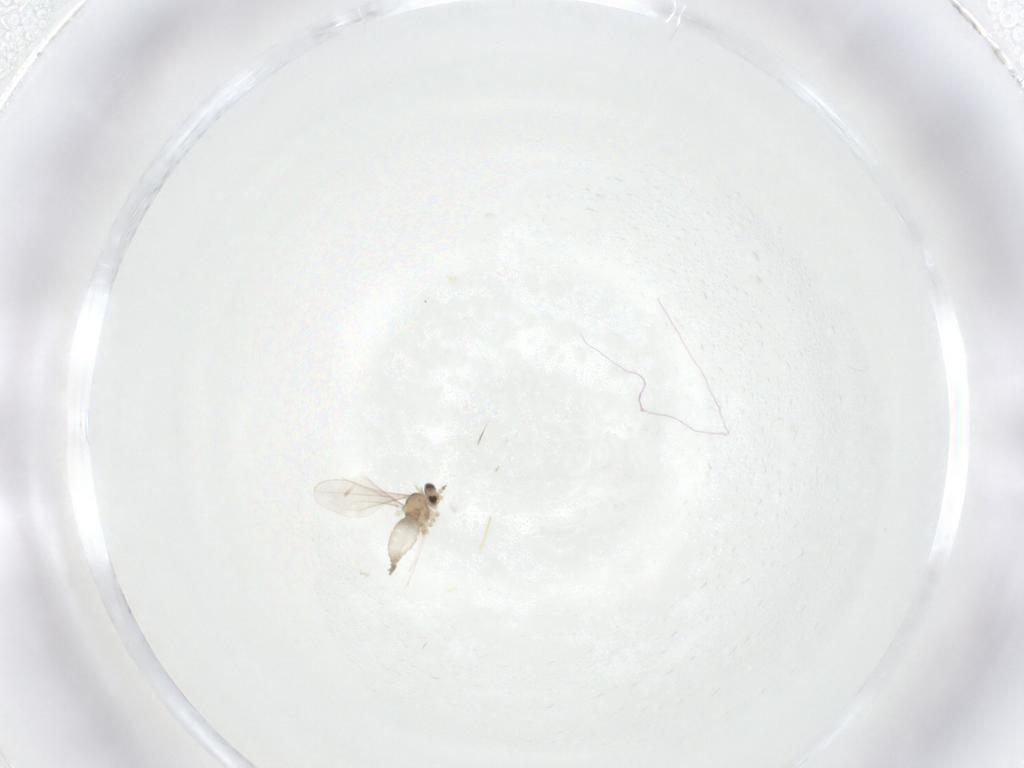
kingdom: Animalia
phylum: Arthropoda
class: Insecta
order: Diptera
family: Cecidomyiidae
